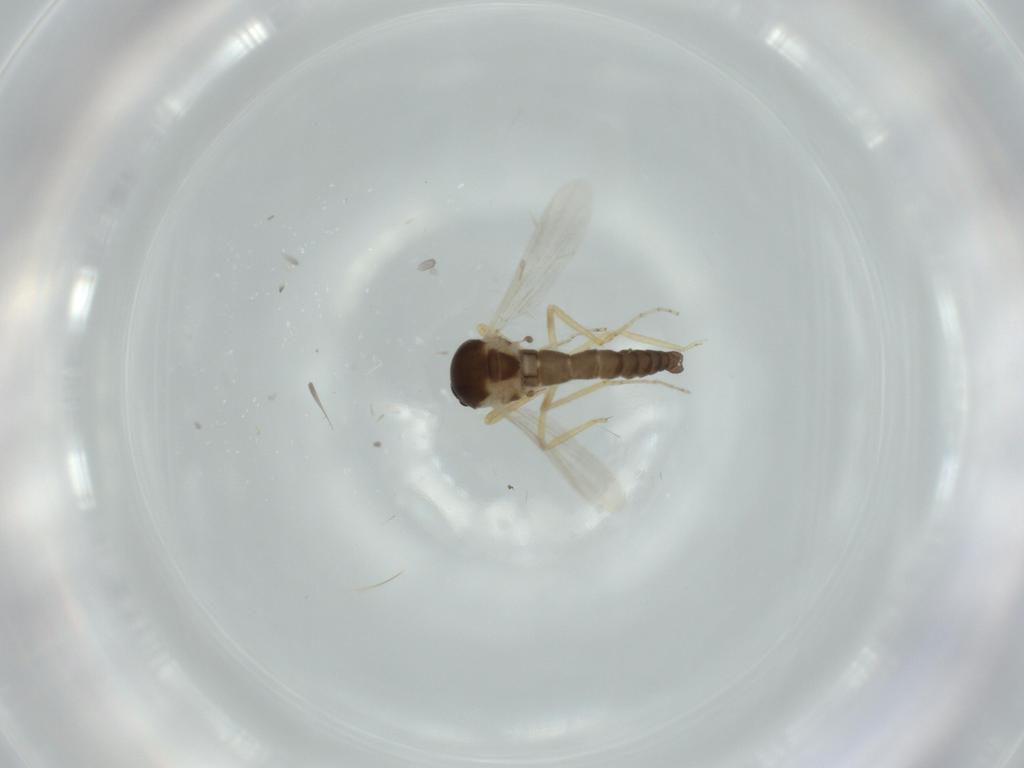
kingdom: Animalia
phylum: Arthropoda
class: Insecta
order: Diptera
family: Ceratopogonidae
